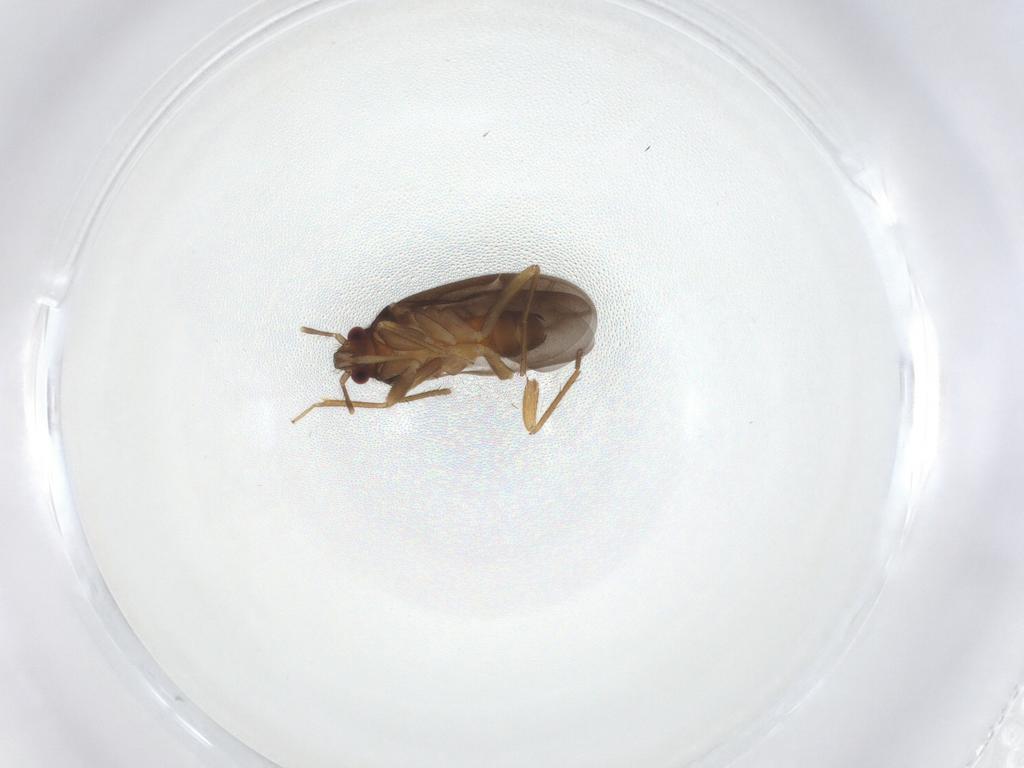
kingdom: Animalia
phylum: Arthropoda
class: Insecta
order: Hemiptera
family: Ceratocombidae
